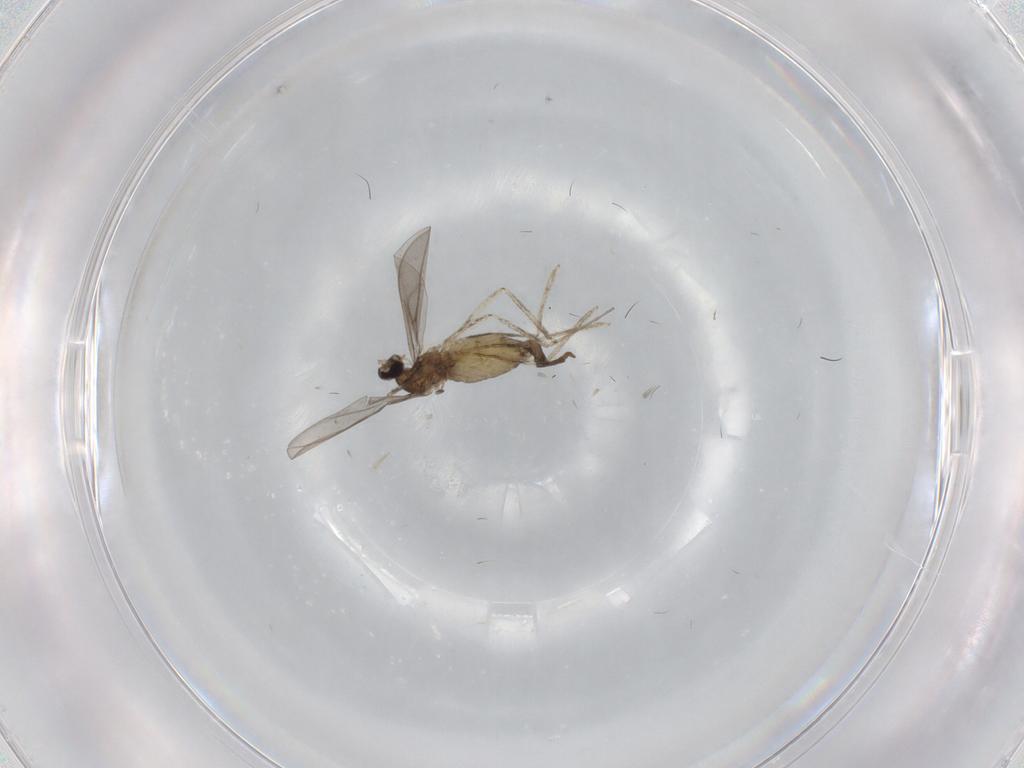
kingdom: Animalia
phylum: Arthropoda
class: Insecta
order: Diptera
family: Cecidomyiidae
